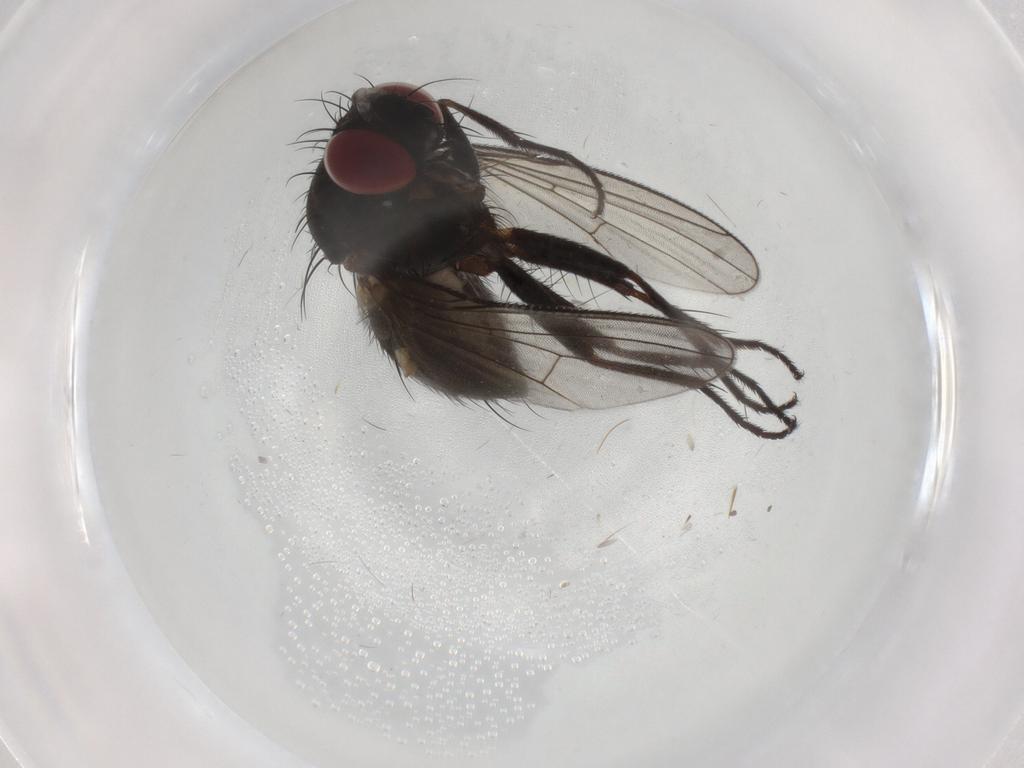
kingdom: Animalia
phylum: Arthropoda
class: Insecta
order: Diptera
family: Muscidae
